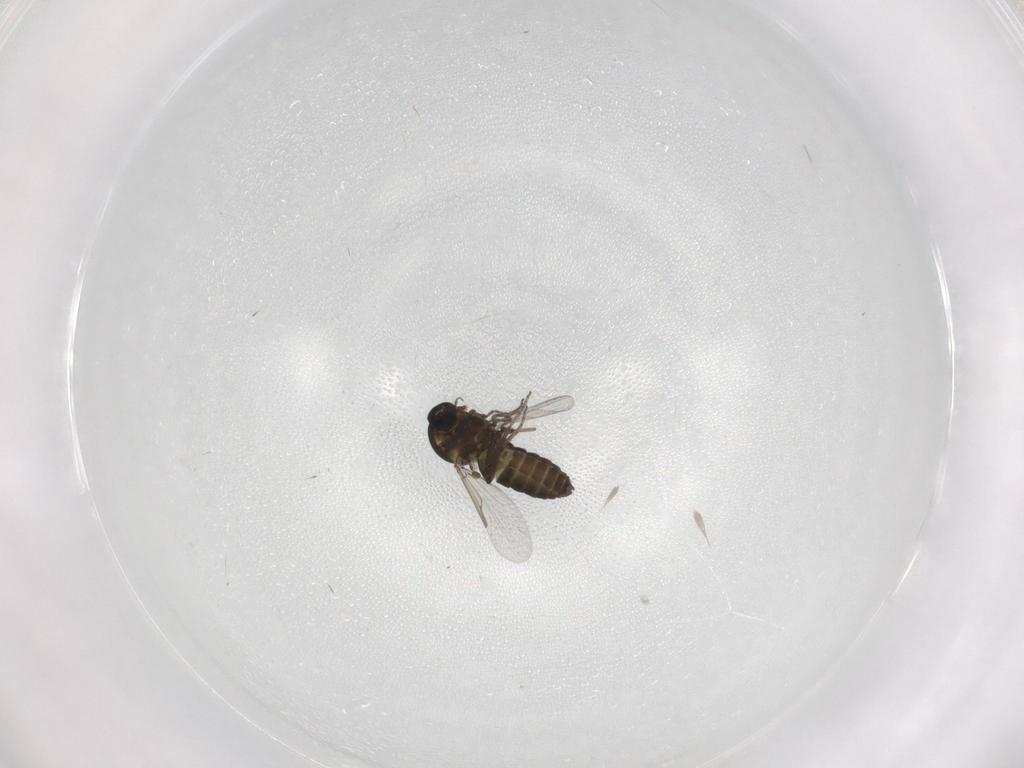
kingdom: Animalia
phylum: Arthropoda
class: Insecta
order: Diptera
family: Ceratopogonidae
